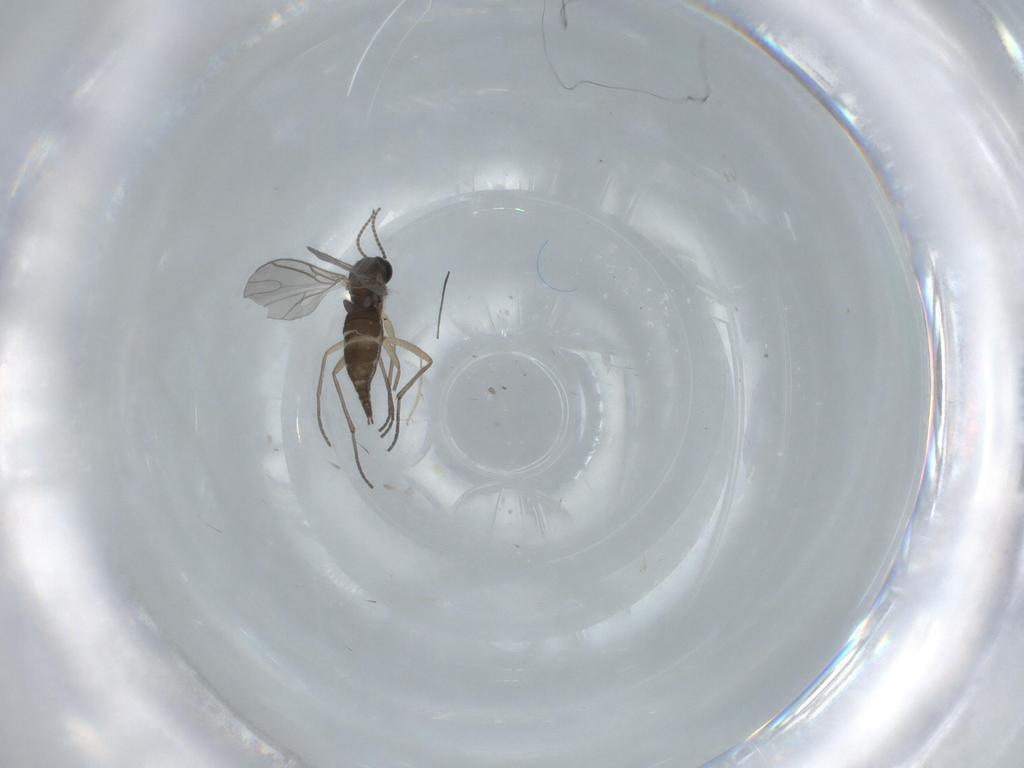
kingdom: Animalia
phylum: Arthropoda
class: Insecta
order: Diptera
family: Sciaridae
